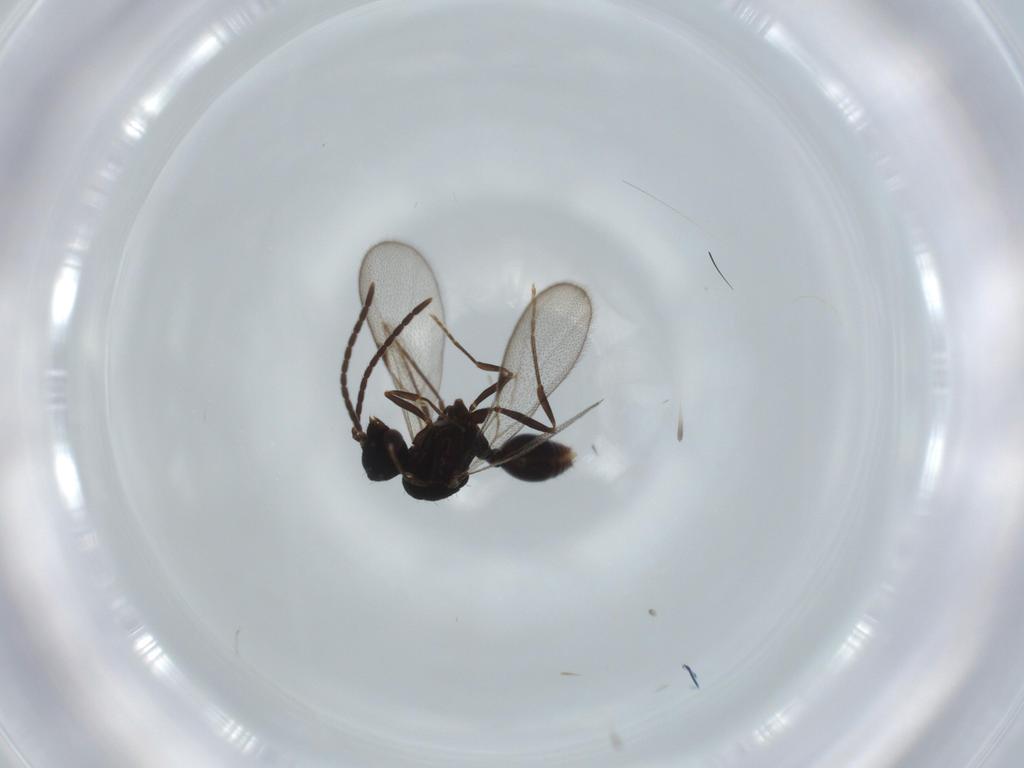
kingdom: Animalia
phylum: Arthropoda
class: Insecta
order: Hymenoptera
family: Formicidae
